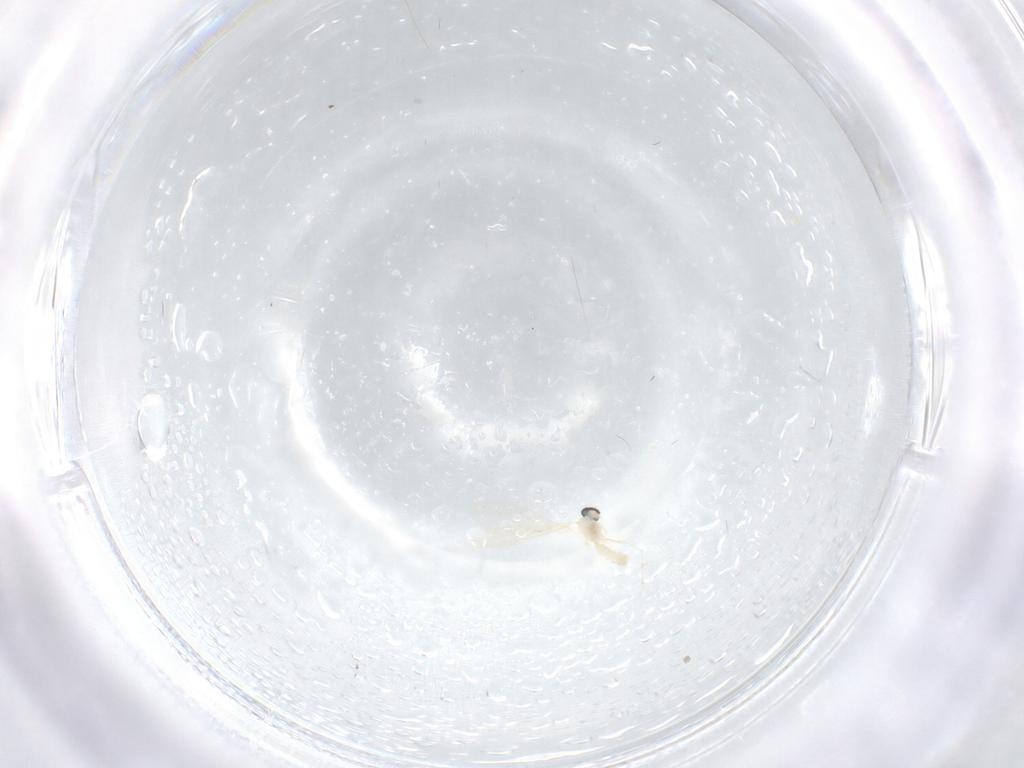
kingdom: Animalia
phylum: Arthropoda
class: Insecta
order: Diptera
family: Cecidomyiidae
